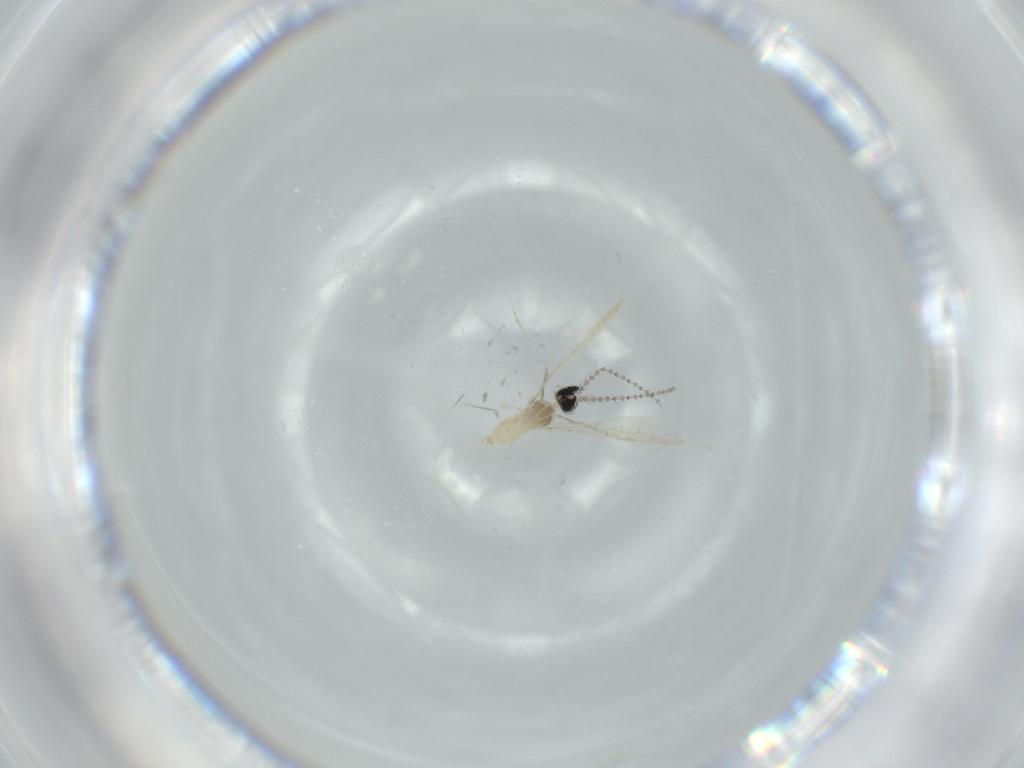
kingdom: Animalia
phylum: Arthropoda
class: Insecta
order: Diptera
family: Cecidomyiidae
